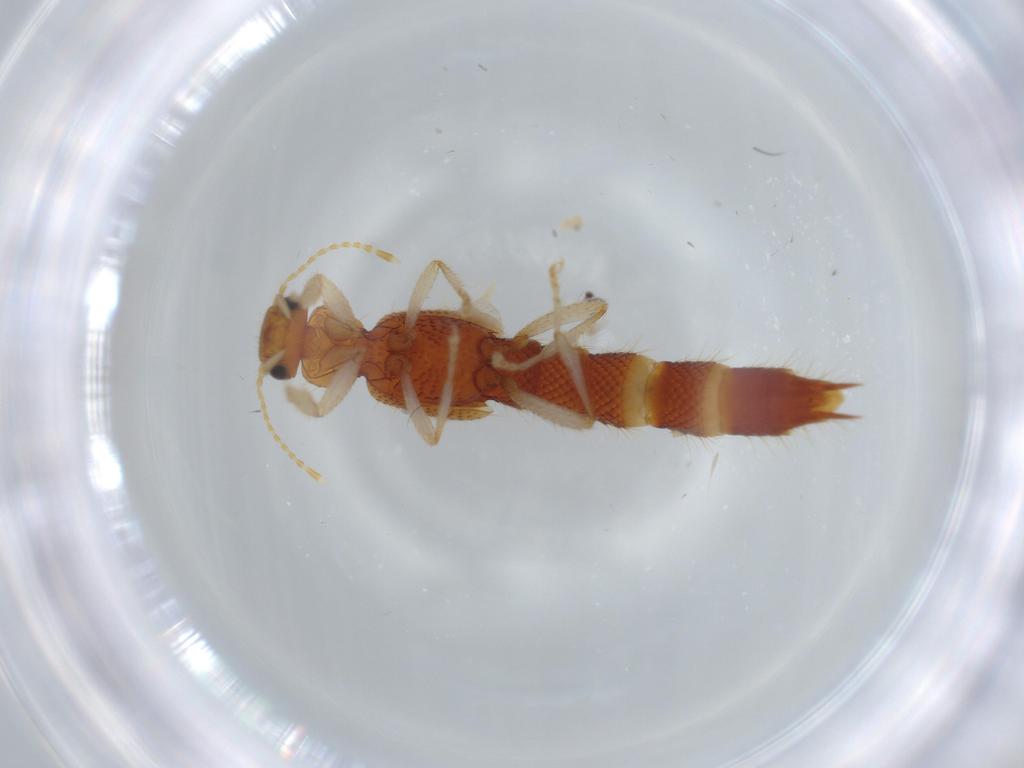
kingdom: Animalia
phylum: Arthropoda
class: Insecta
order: Coleoptera
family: Staphylinidae
